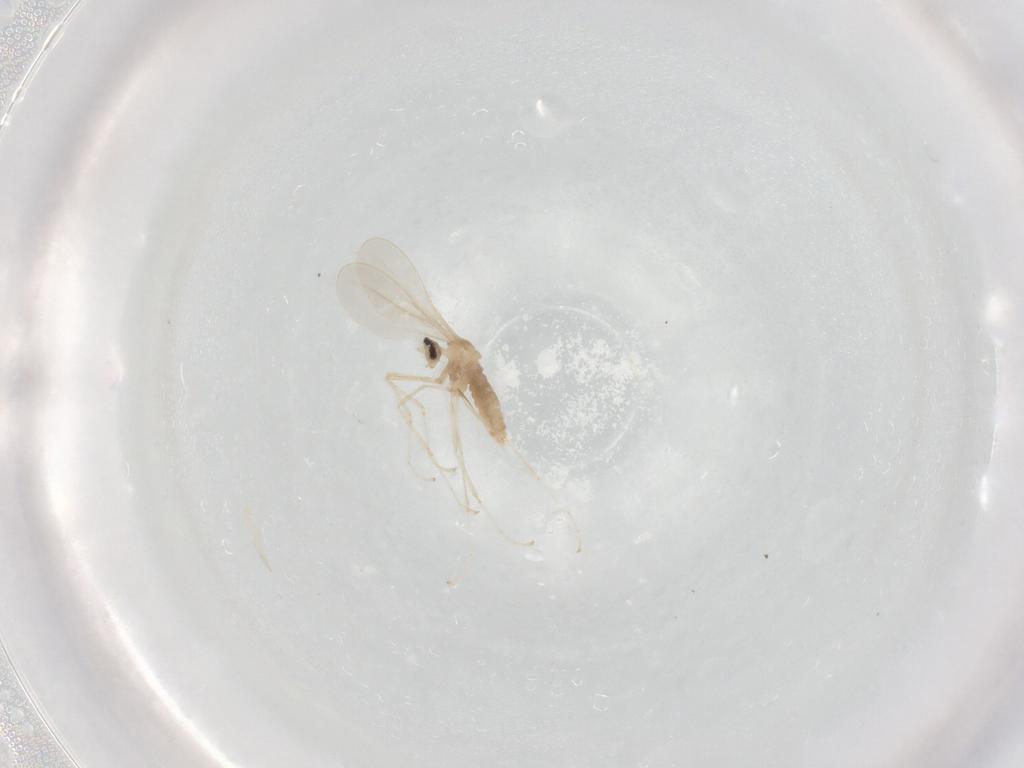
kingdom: Animalia
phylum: Arthropoda
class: Insecta
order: Diptera
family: Cecidomyiidae
